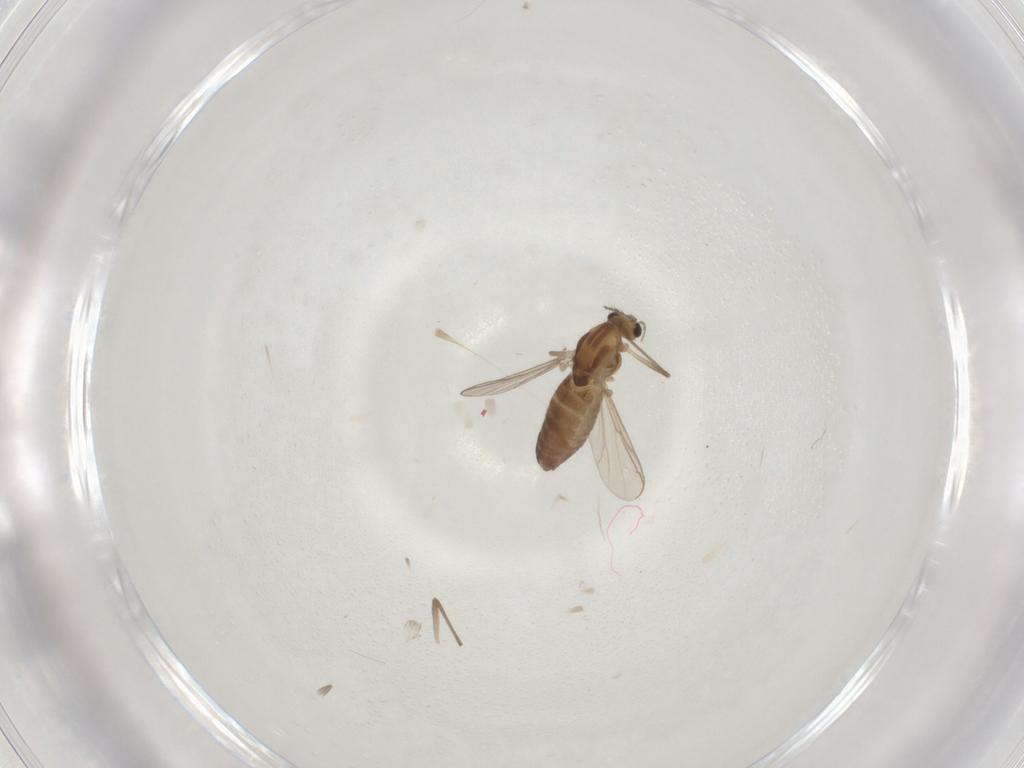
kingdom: Animalia
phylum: Arthropoda
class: Insecta
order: Diptera
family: Chironomidae
